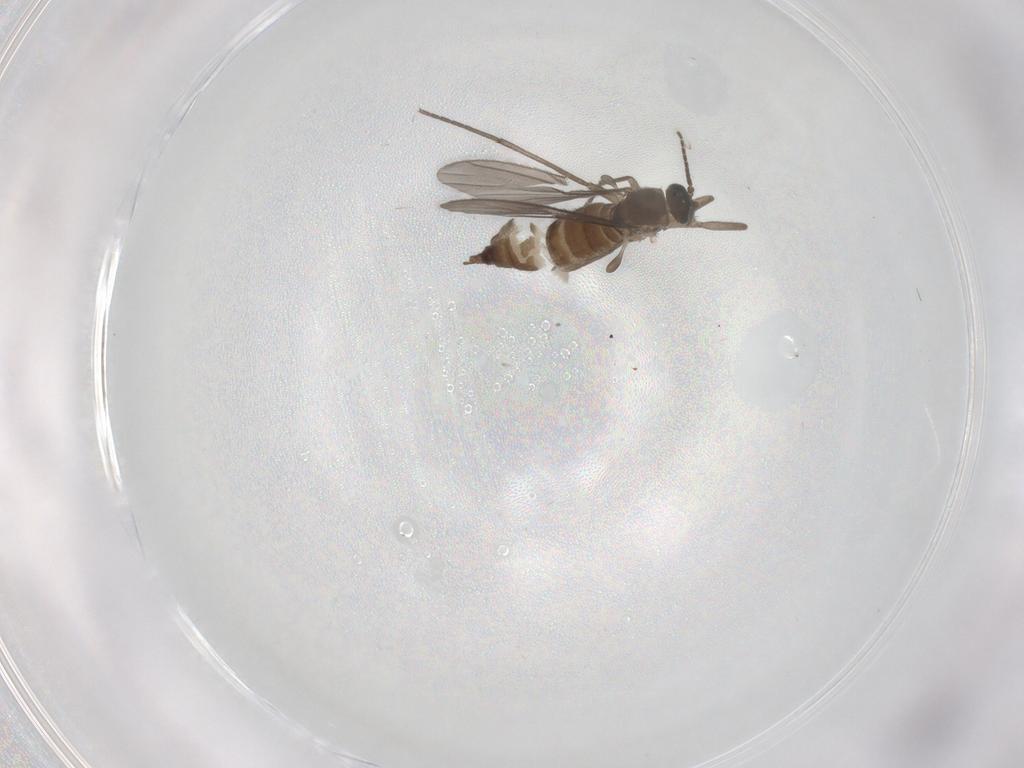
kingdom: Animalia
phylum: Arthropoda
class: Insecta
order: Diptera
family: Sciaridae
